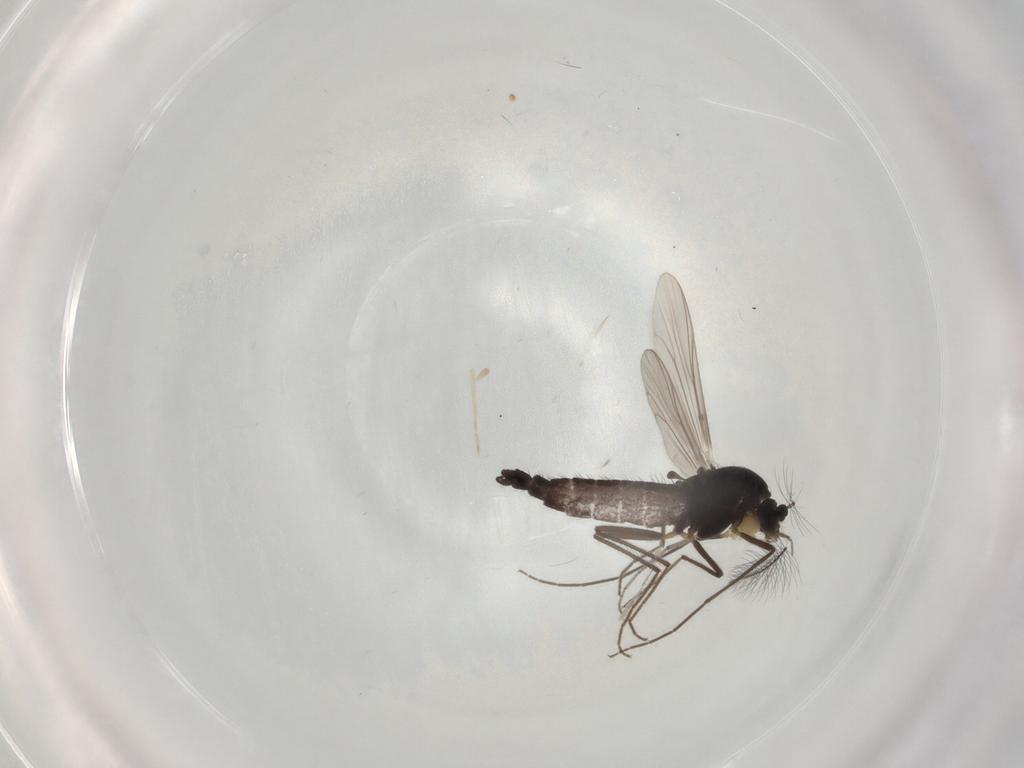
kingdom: Animalia
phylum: Arthropoda
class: Insecta
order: Diptera
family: Chironomidae
